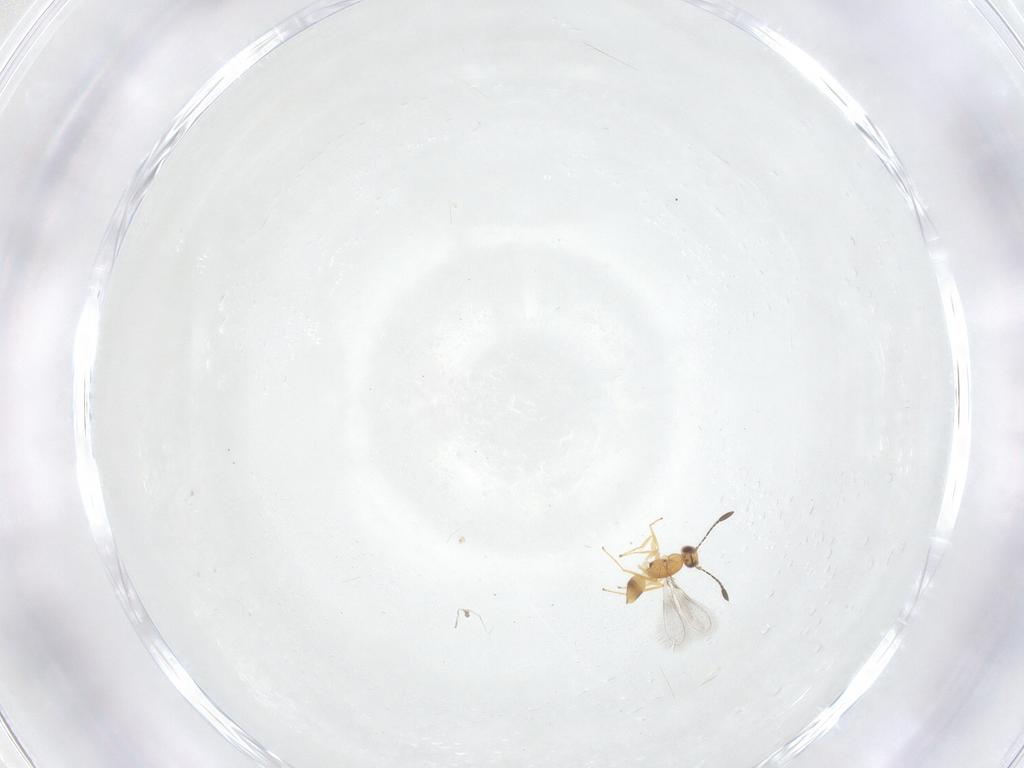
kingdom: Animalia
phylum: Arthropoda
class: Insecta
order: Hymenoptera
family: Mymaridae
